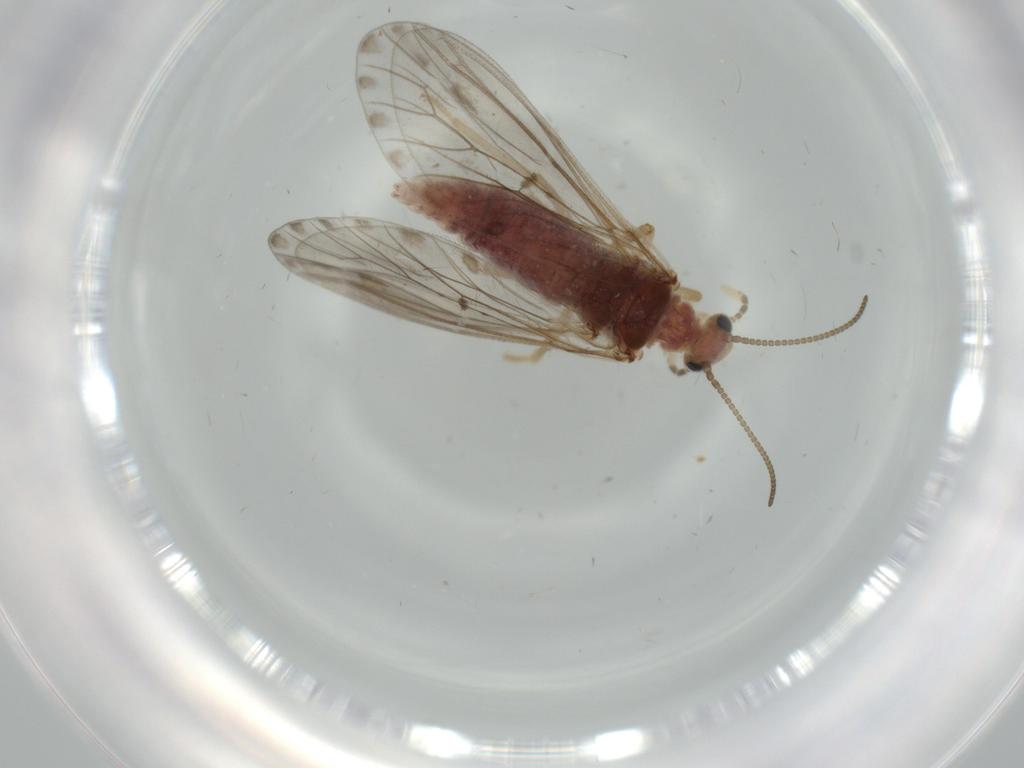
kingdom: Animalia
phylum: Arthropoda
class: Insecta
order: Neuroptera
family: Coniopterygidae
